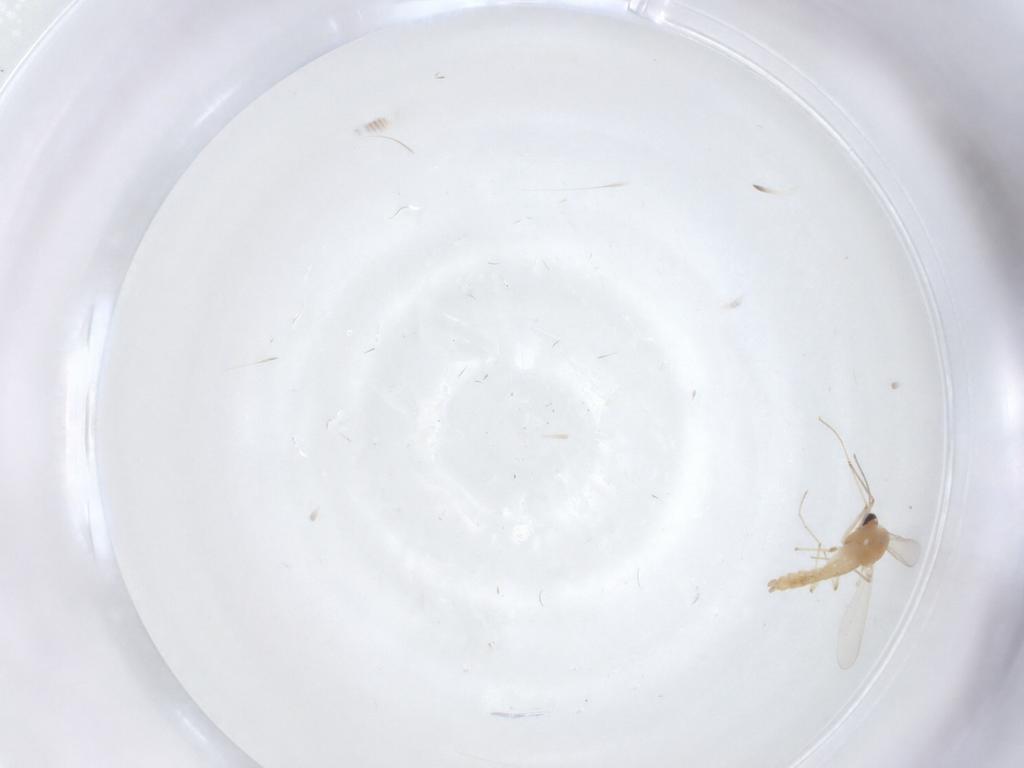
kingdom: Animalia
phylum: Arthropoda
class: Insecta
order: Diptera
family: Chironomidae
